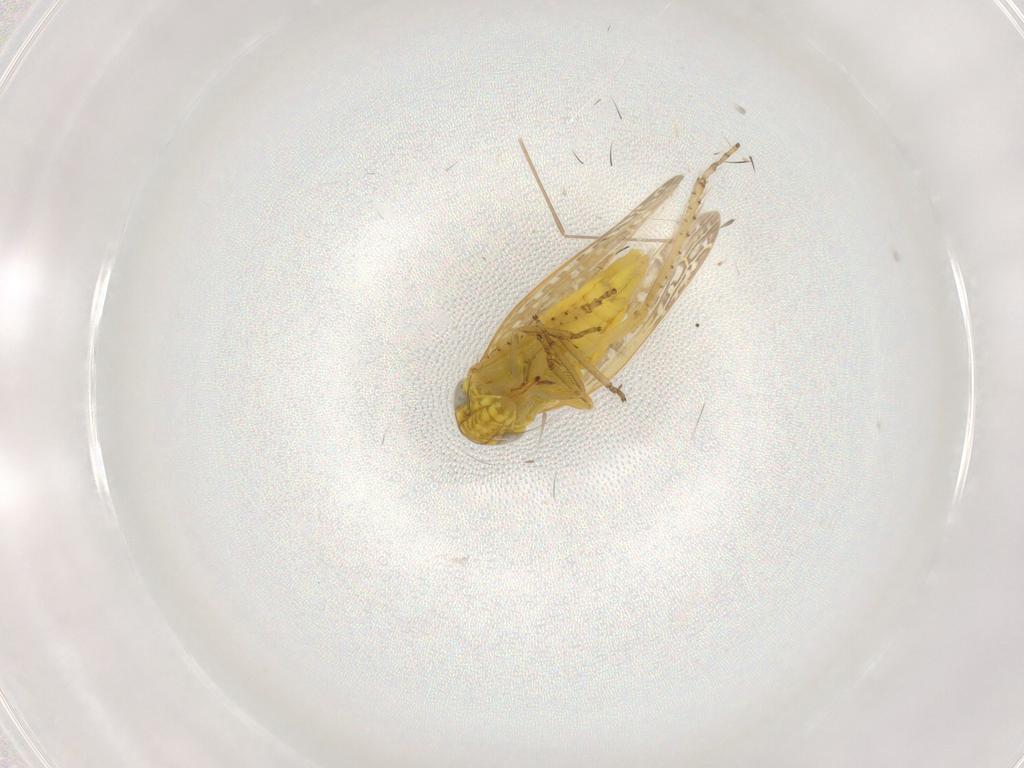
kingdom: Animalia
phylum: Arthropoda
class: Insecta
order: Hemiptera
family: Cicadellidae
